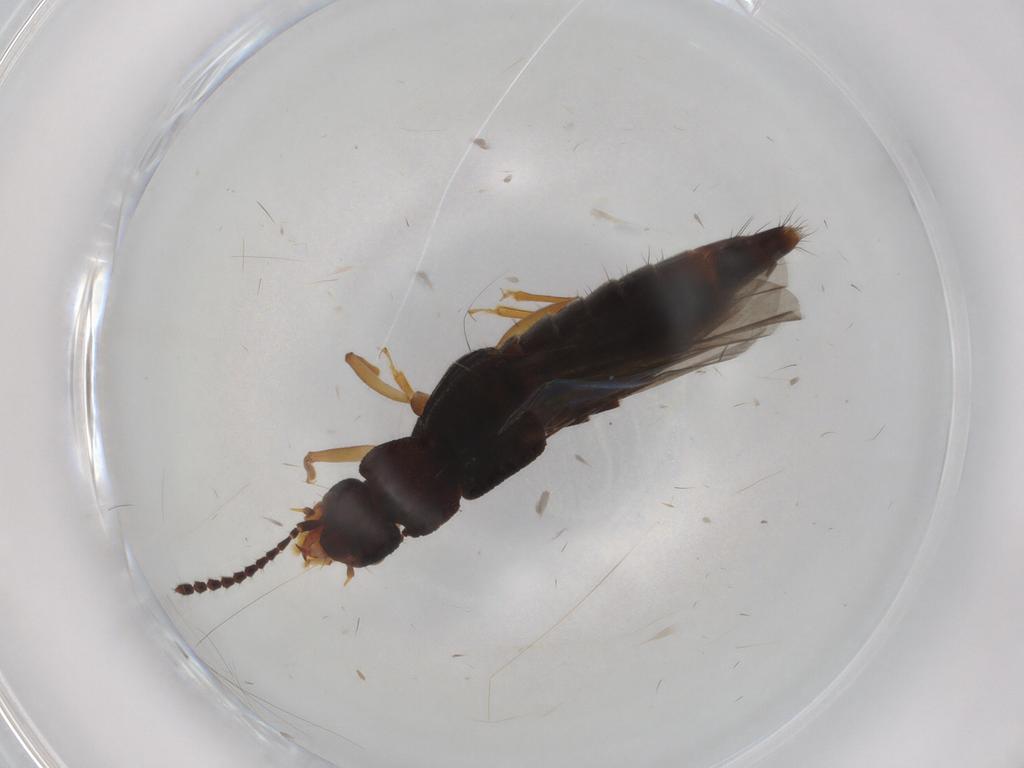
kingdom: Animalia
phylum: Arthropoda
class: Insecta
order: Coleoptera
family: Staphylinidae
